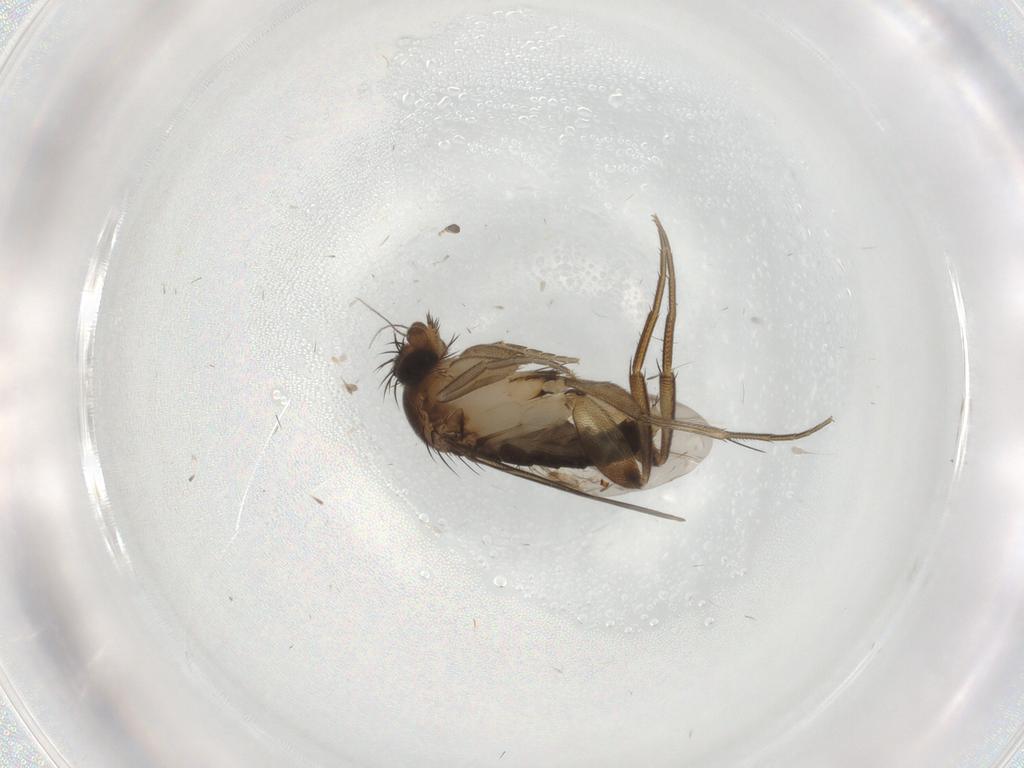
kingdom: Animalia
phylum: Arthropoda
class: Insecta
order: Diptera
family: Phoridae
